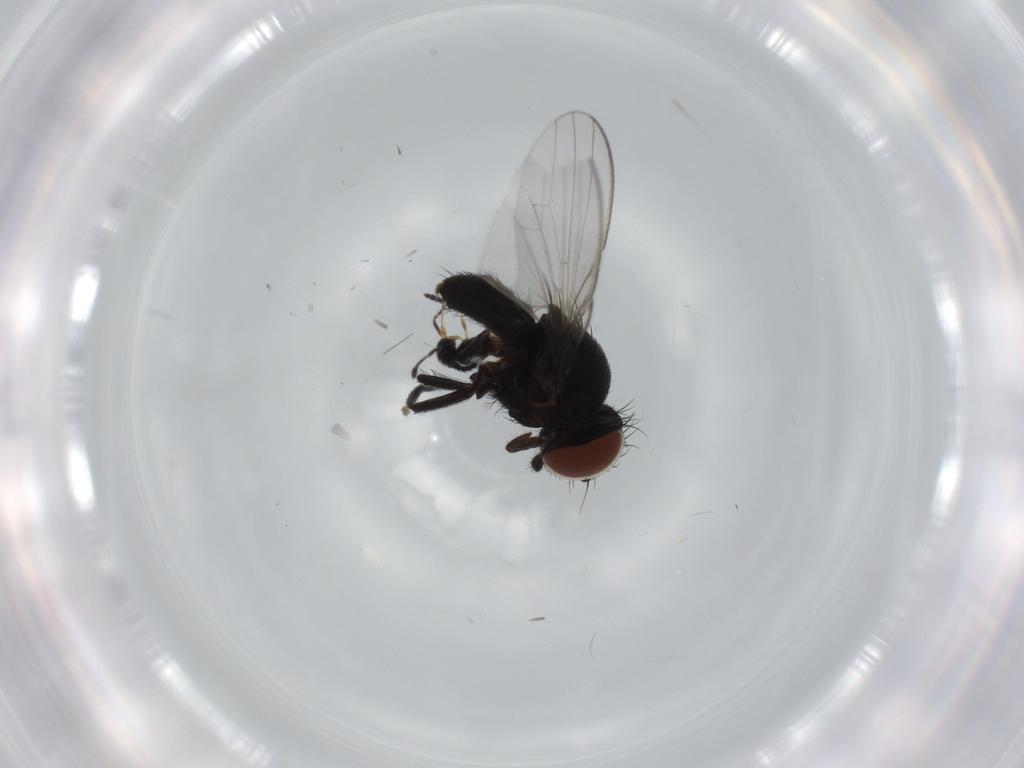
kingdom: Animalia
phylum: Arthropoda
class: Insecta
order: Diptera
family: Milichiidae
